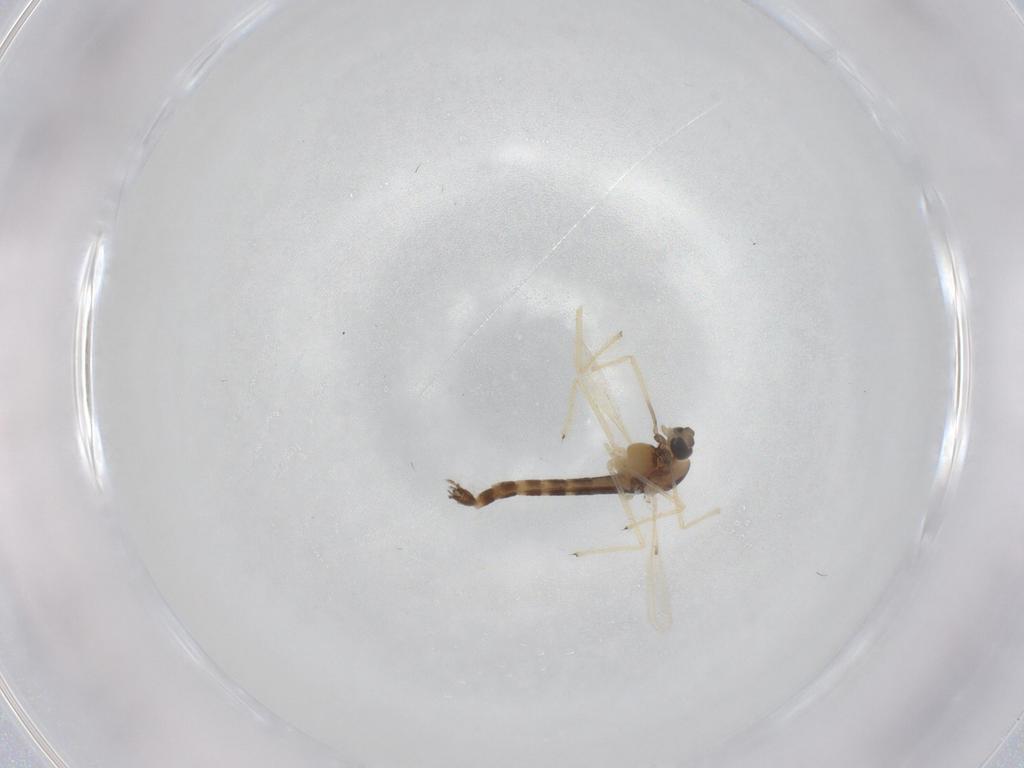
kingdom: Animalia
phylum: Arthropoda
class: Insecta
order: Diptera
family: Chironomidae
